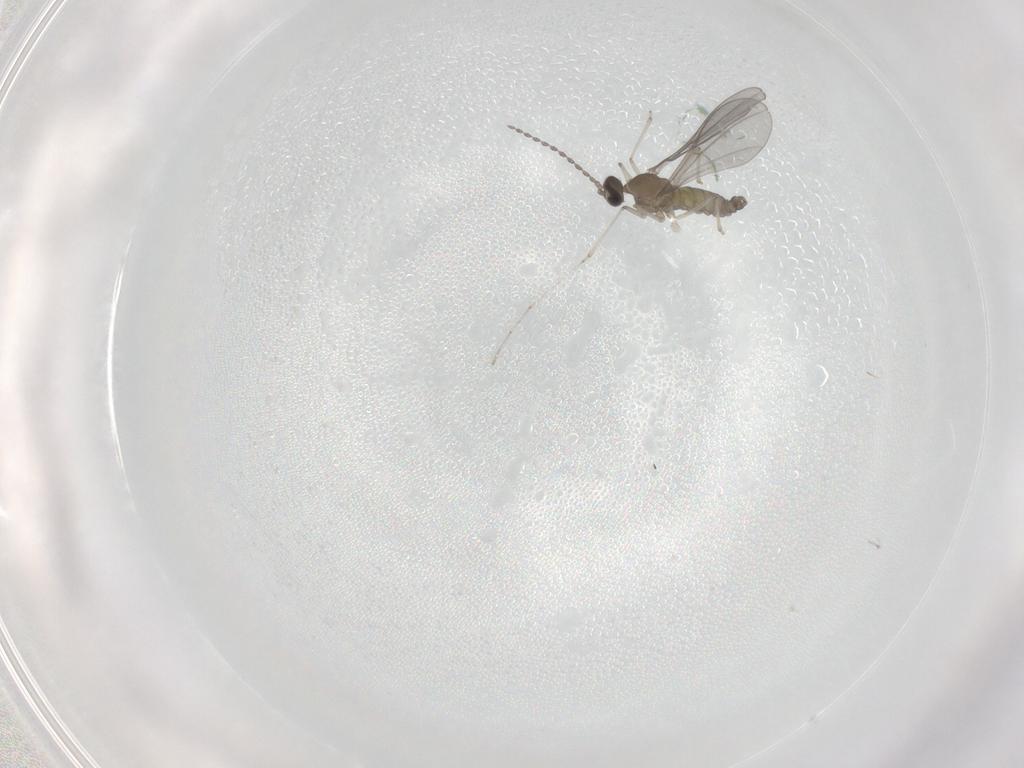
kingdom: Animalia
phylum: Arthropoda
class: Insecta
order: Diptera
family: Cecidomyiidae
